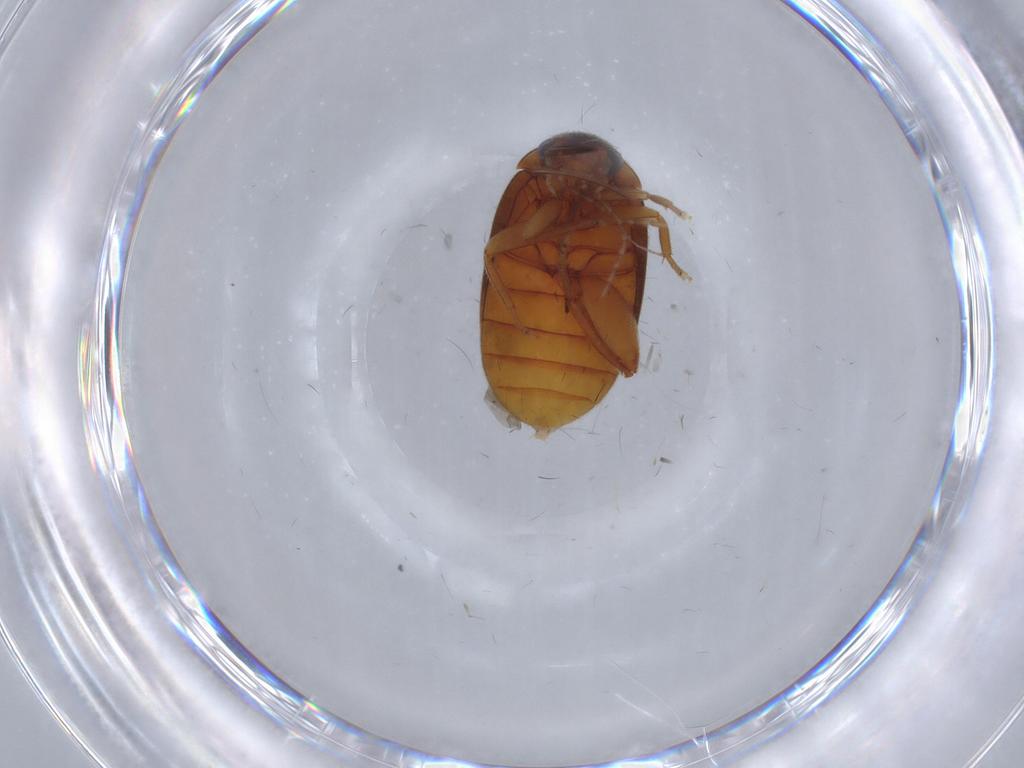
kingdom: Animalia
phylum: Arthropoda
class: Insecta
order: Coleoptera
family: Scirtidae
